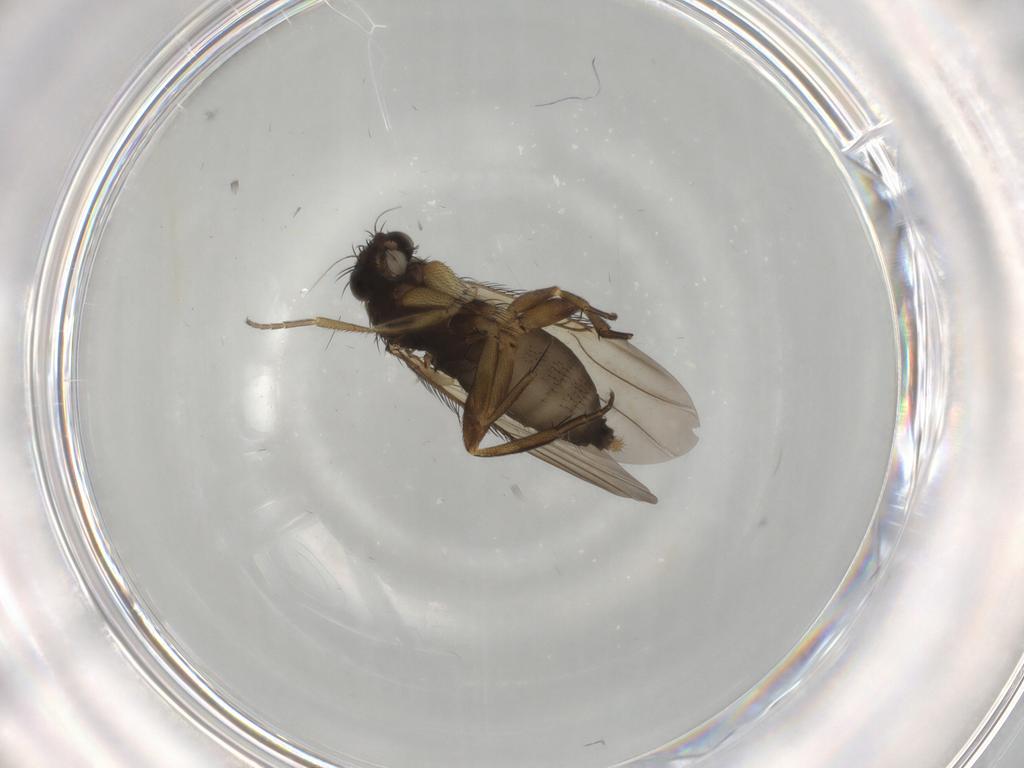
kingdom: Animalia
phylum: Arthropoda
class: Insecta
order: Diptera
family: Phoridae
